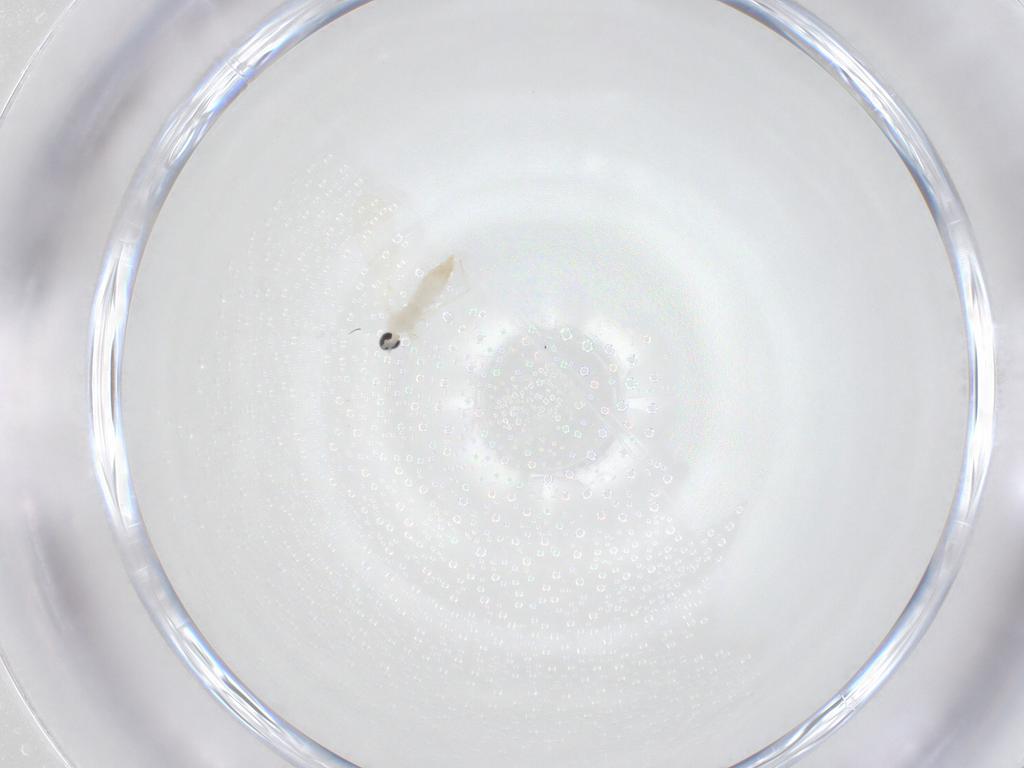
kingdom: Animalia
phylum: Arthropoda
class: Insecta
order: Diptera
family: Cecidomyiidae
